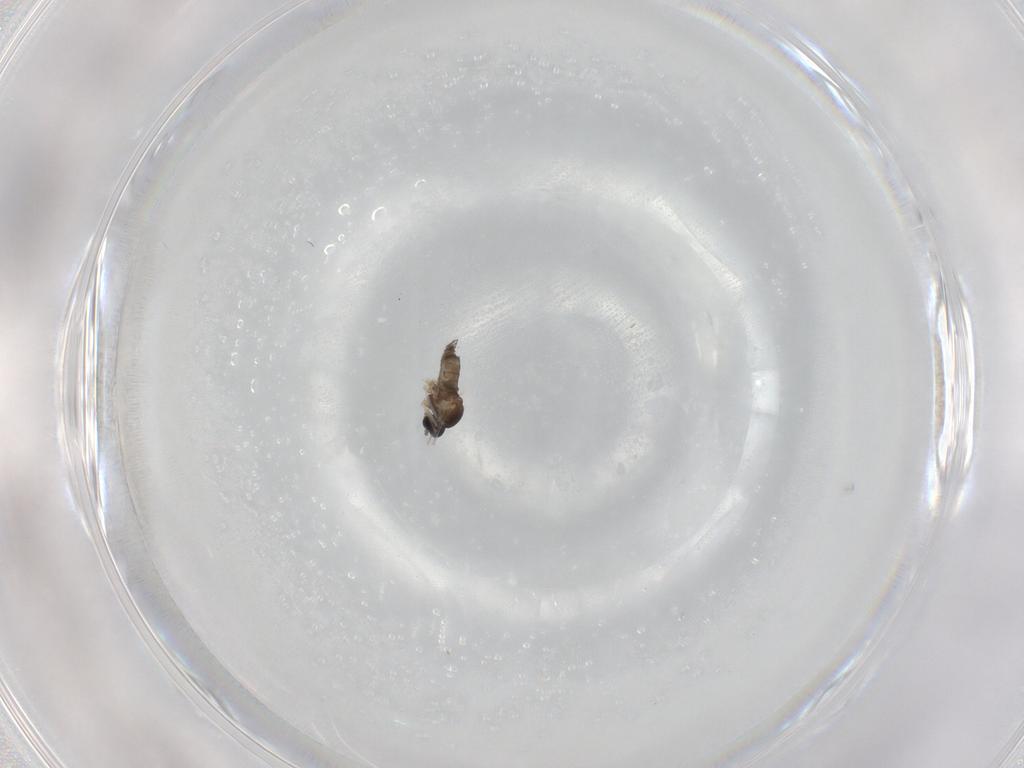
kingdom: Animalia
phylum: Arthropoda
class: Insecta
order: Diptera
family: Cecidomyiidae
